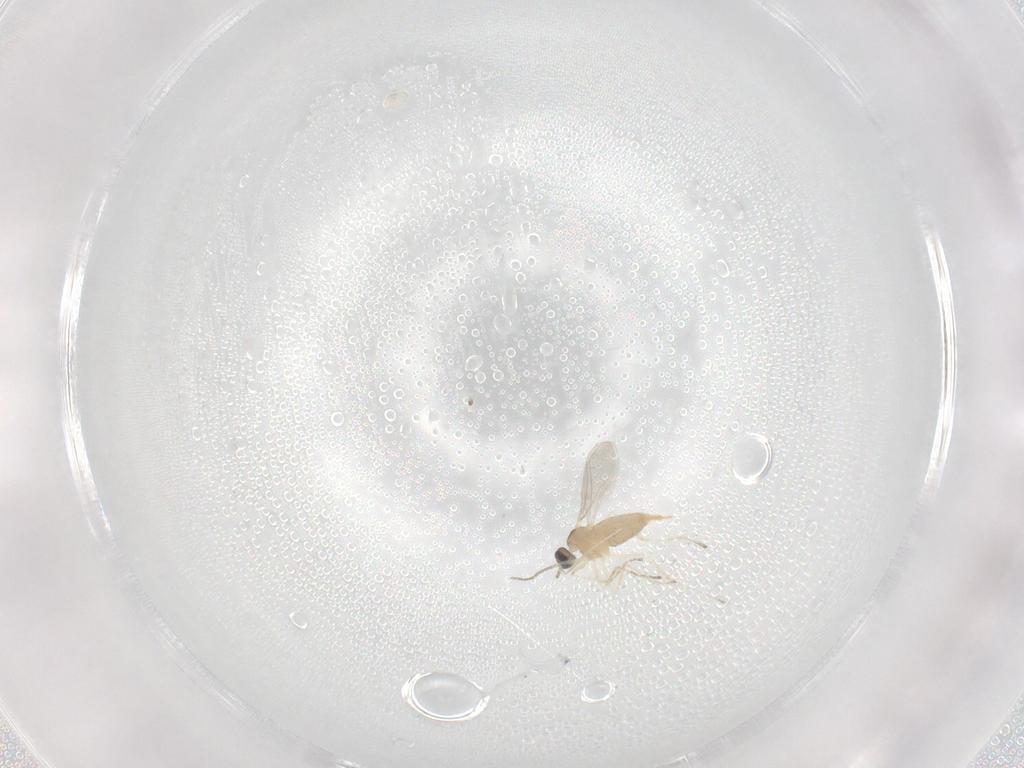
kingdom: Animalia
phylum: Arthropoda
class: Insecta
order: Diptera
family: Cecidomyiidae
